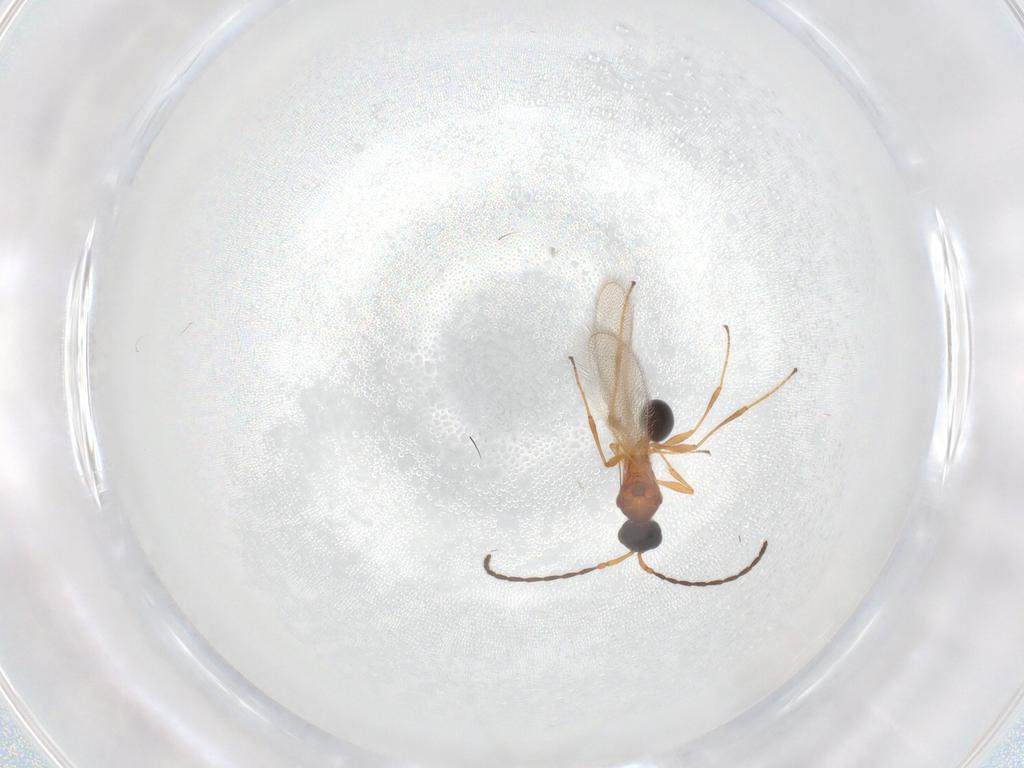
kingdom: Animalia
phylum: Arthropoda
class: Insecta
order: Hymenoptera
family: Diapriidae
